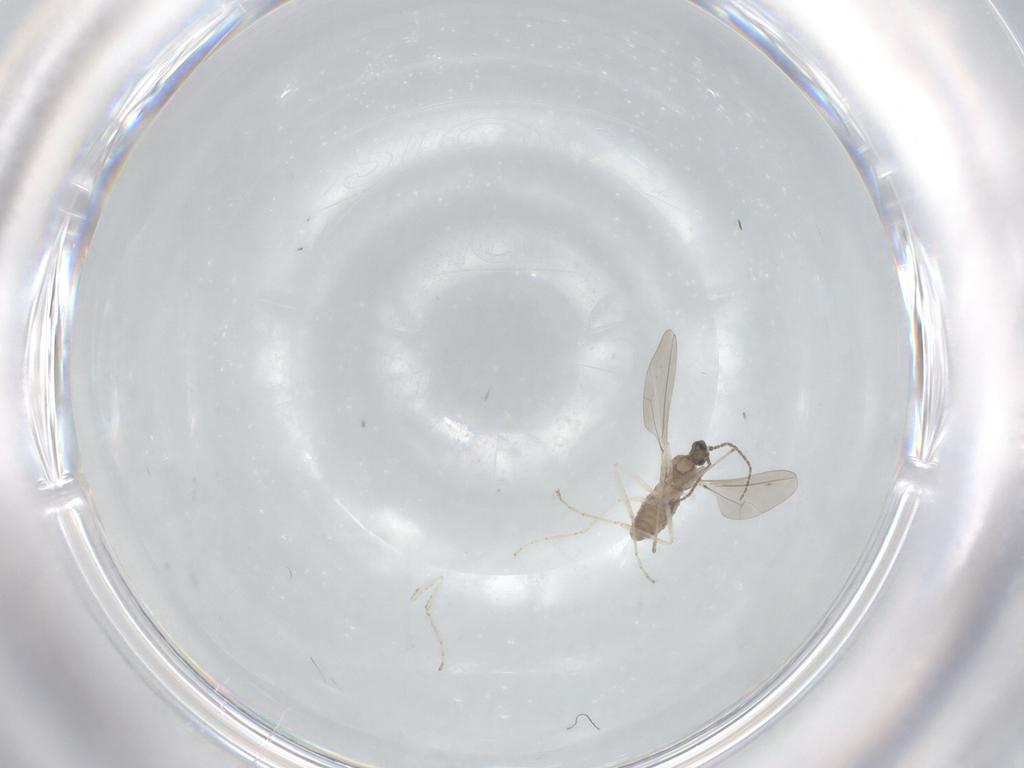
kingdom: Animalia
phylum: Arthropoda
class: Insecta
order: Diptera
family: Cecidomyiidae
